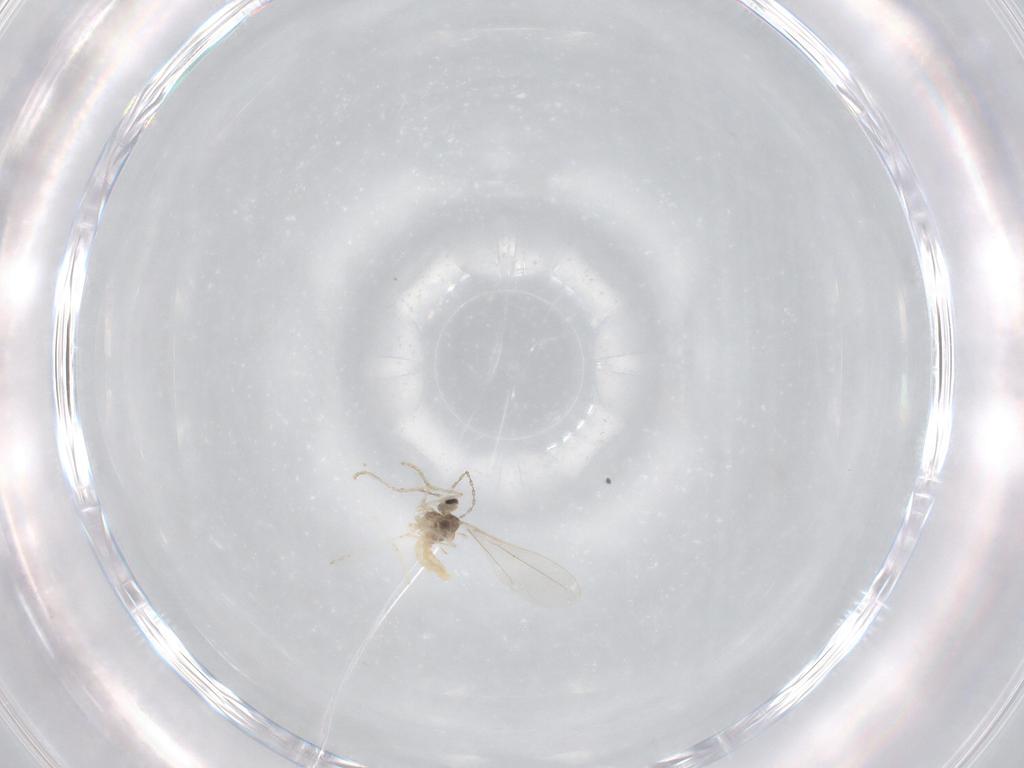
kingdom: Animalia
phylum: Arthropoda
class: Insecta
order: Diptera
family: Cecidomyiidae
